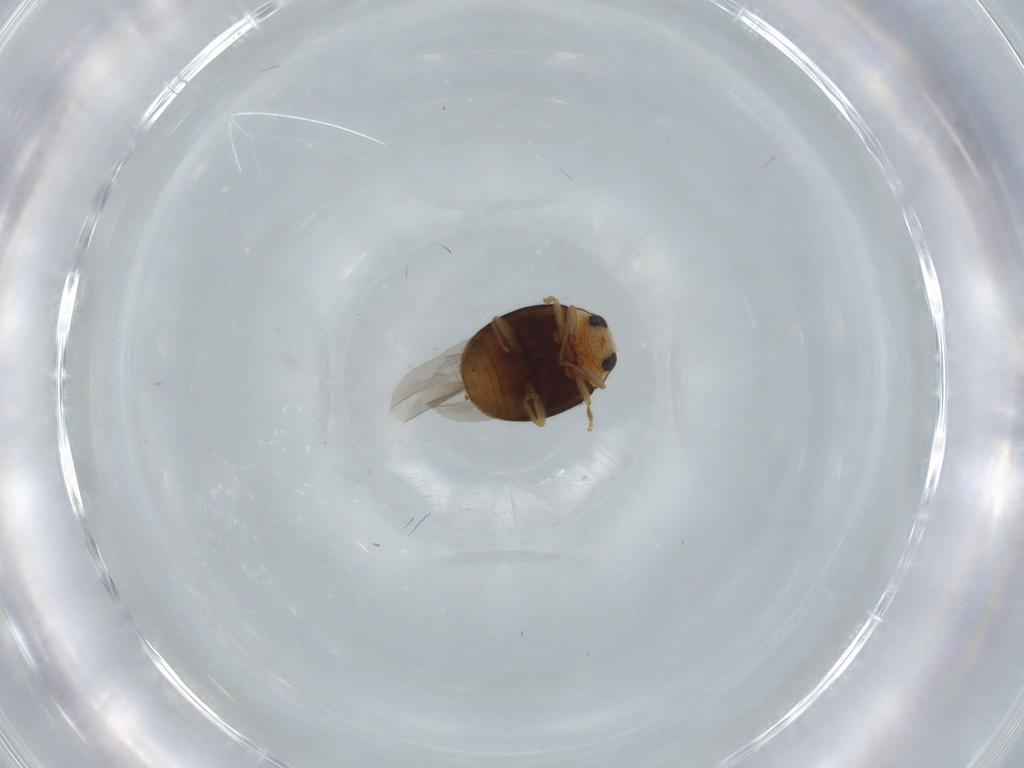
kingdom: Animalia
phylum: Arthropoda
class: Insecta
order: Coleoptera
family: Coccinellidae
